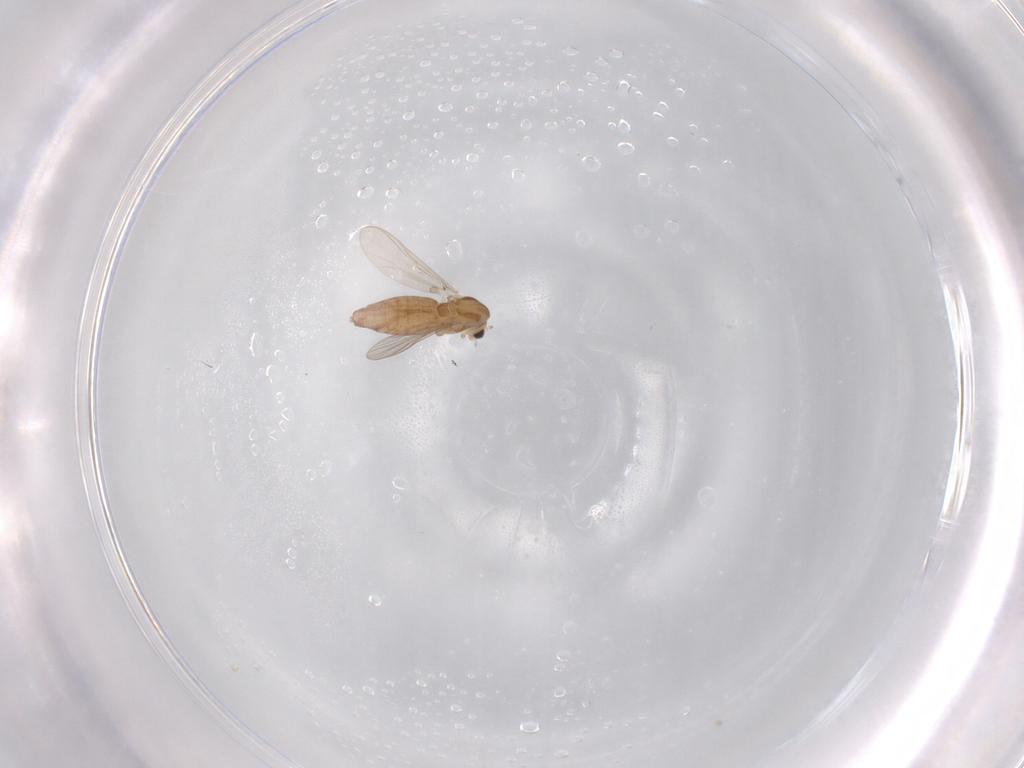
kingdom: Animalia
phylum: Arthropoda
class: Insecta
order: Diptera
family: Chironomidae
